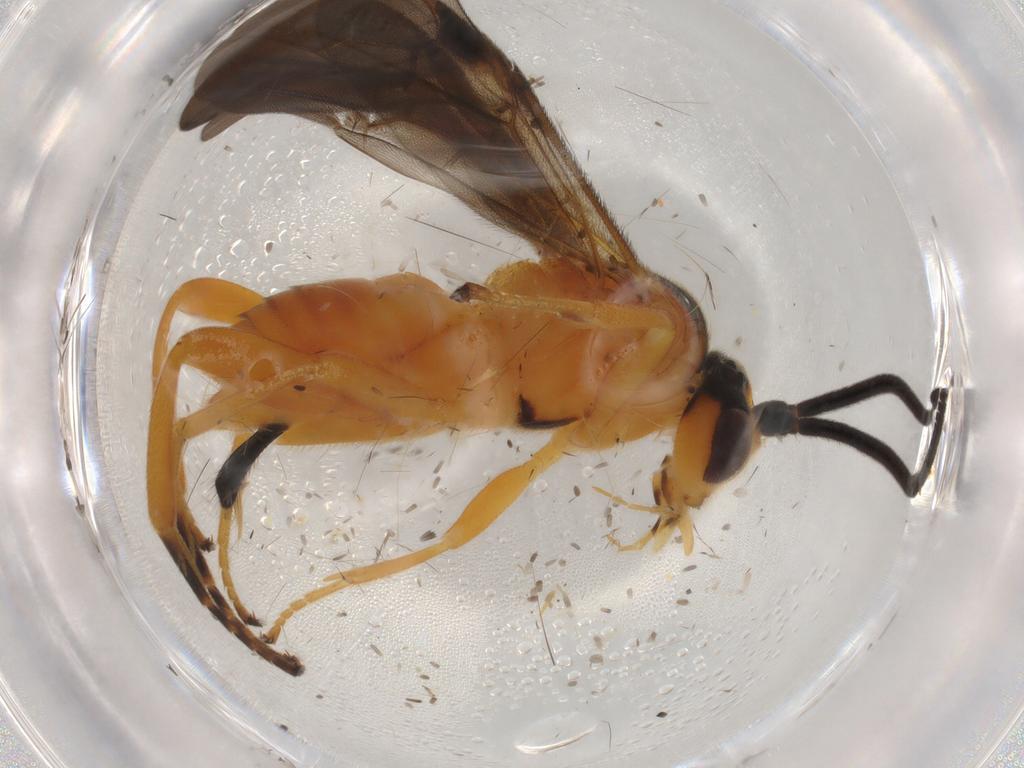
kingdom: Animalia
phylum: Arthropoda
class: Insecta
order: Hymenoptera
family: Braconidae
